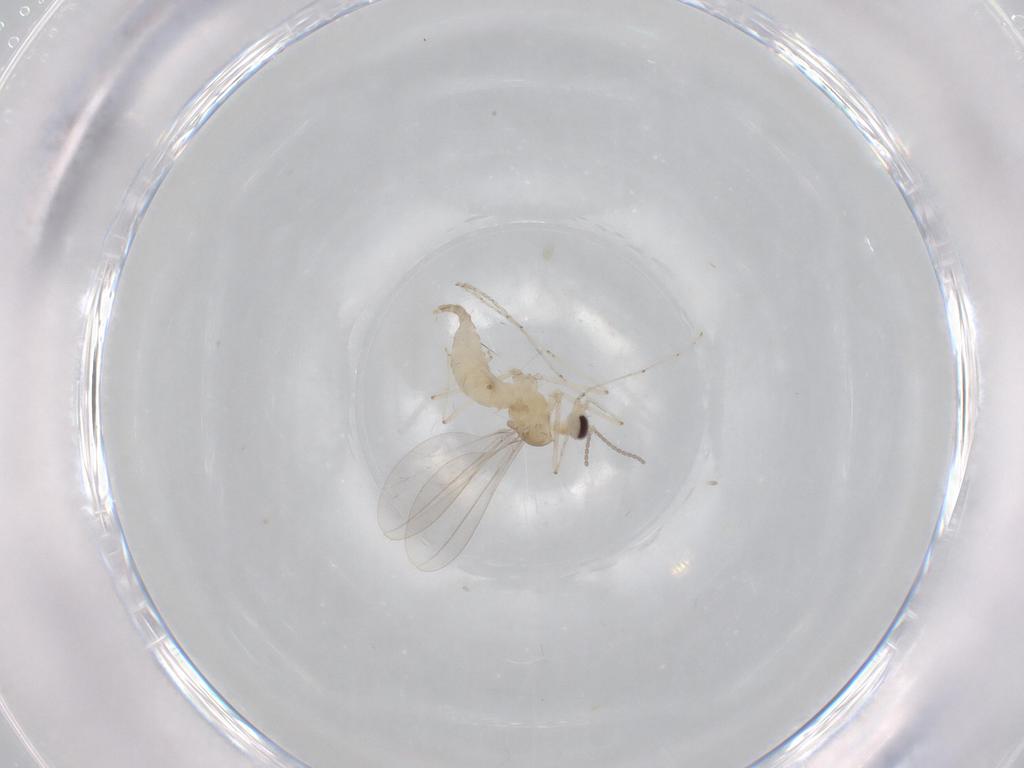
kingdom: Animalia
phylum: Arthropoda
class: Insecta
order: Diptera
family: Cecidomyiidae
